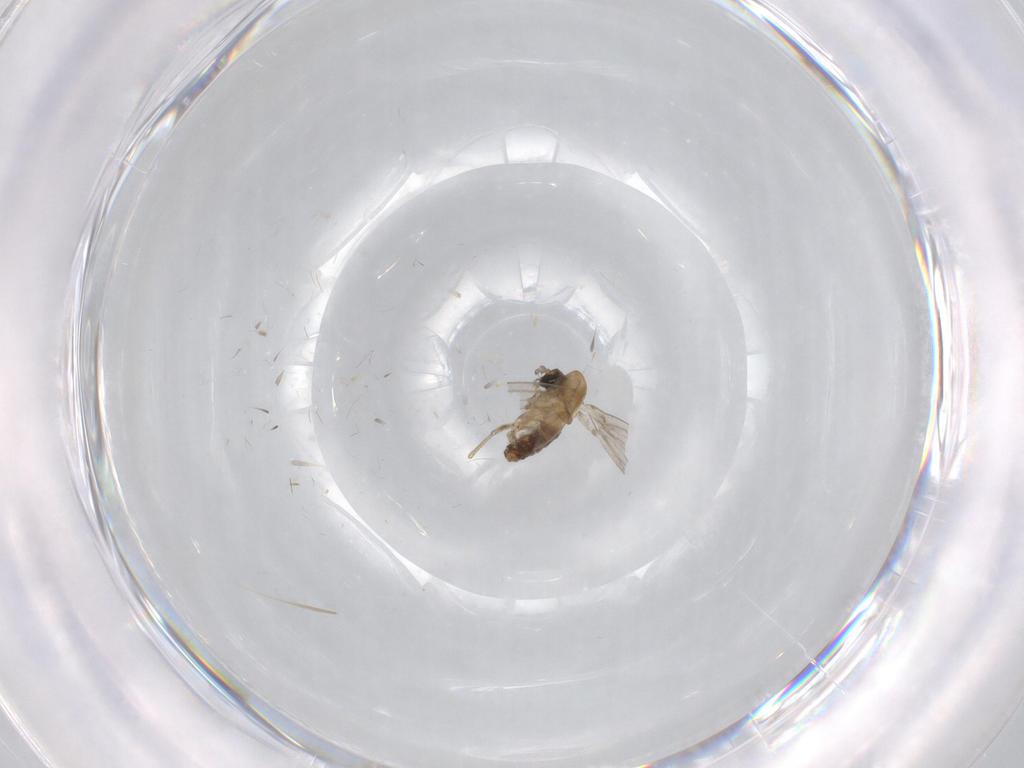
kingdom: Animalia
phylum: Arthropoda
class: Insecta
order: Diptera
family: Psychodidae
